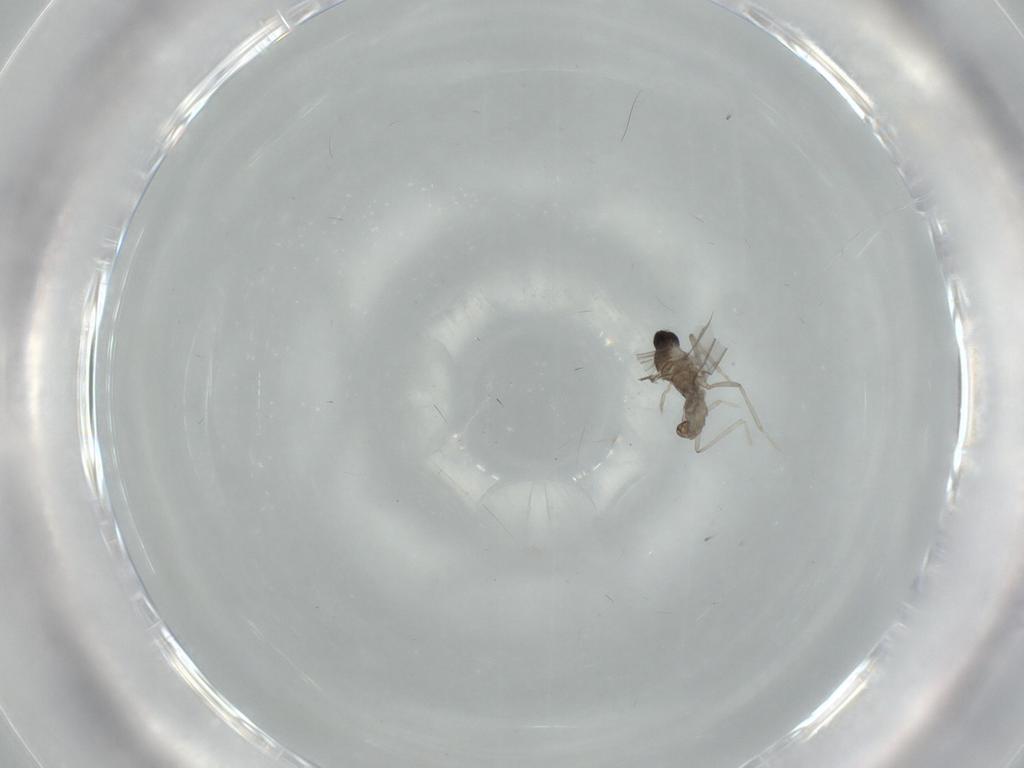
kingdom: Animalia
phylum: Arthropoda
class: Insecta
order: Diptera
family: Cecidomyiidae
